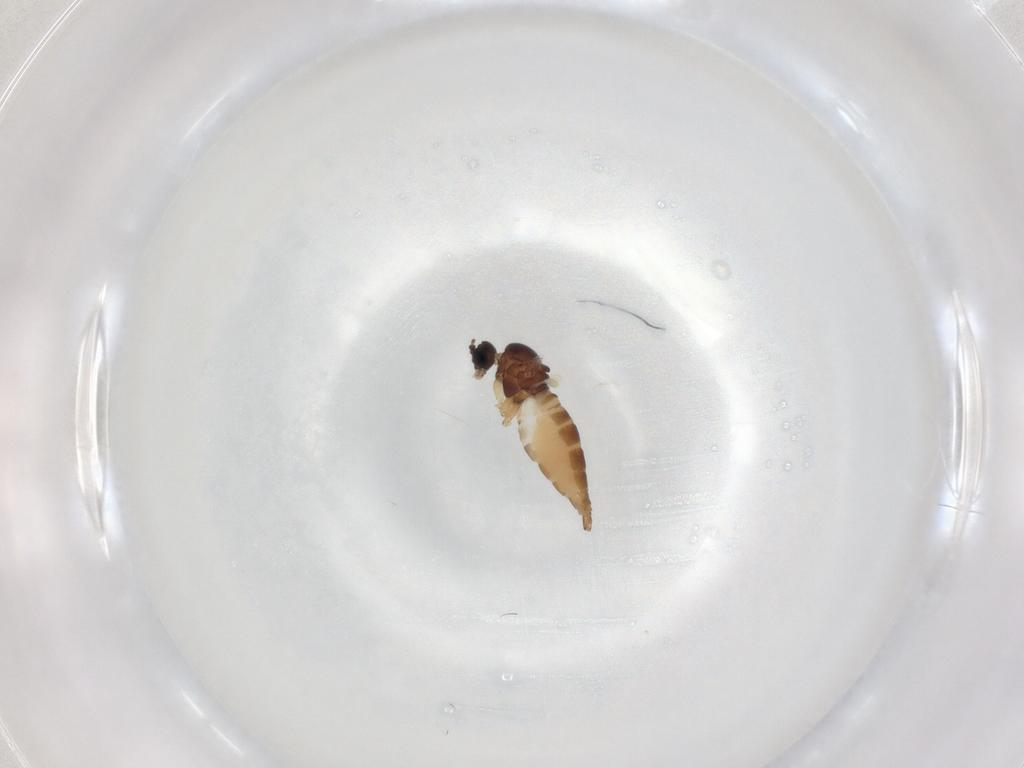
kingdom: Animalia
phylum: Arthropoda
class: Insecta
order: Diptera
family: Sciaridae
